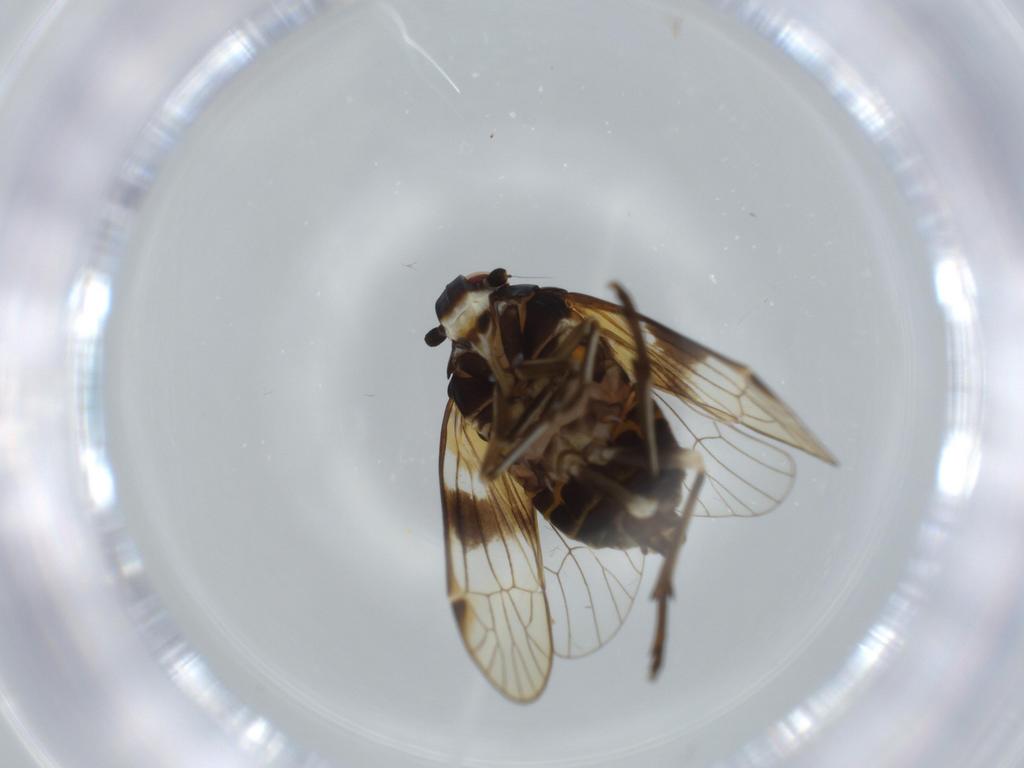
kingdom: Animalia
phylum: Arthropoda
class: Insecta
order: Hemiptera
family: Kinnaridae
